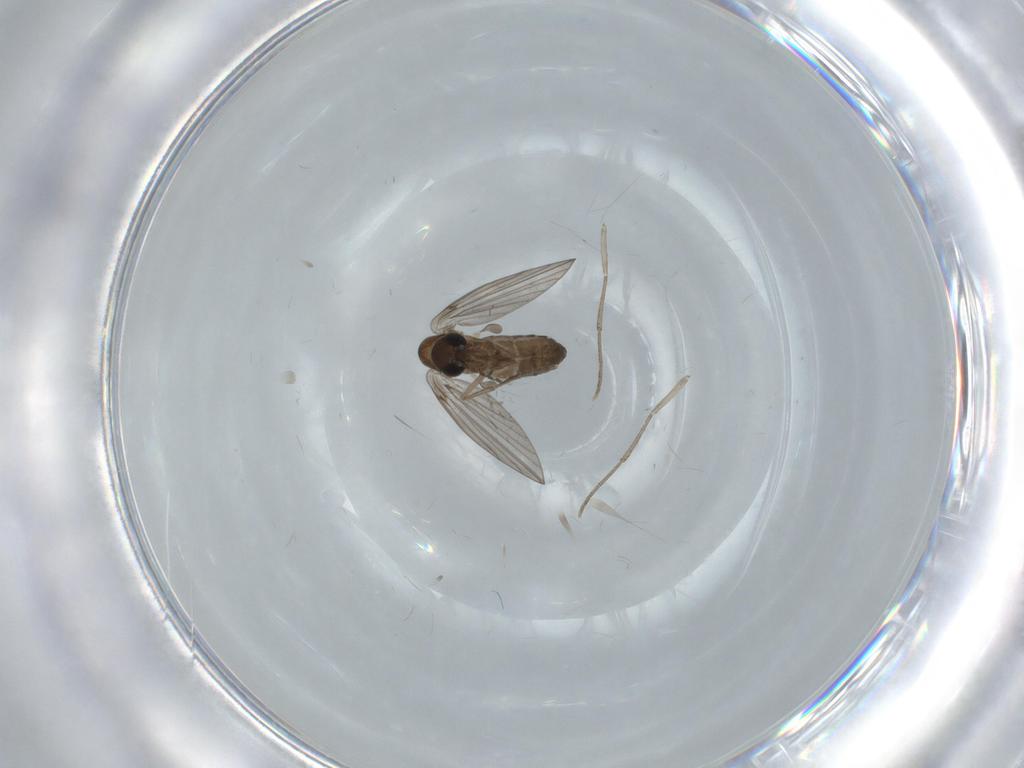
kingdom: Animalia
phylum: Arthropoda
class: Insecta
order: Diptera
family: Psychodidae
